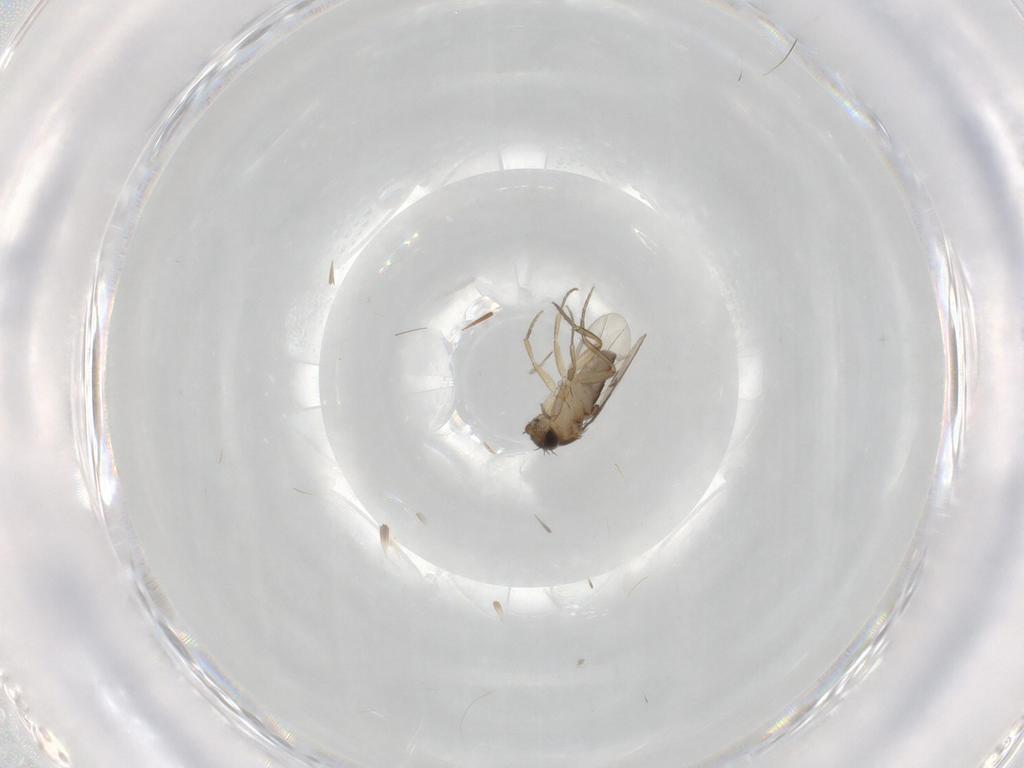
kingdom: Animalia
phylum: Arthropoda
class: Insecta
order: Diptera
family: Phoridae
